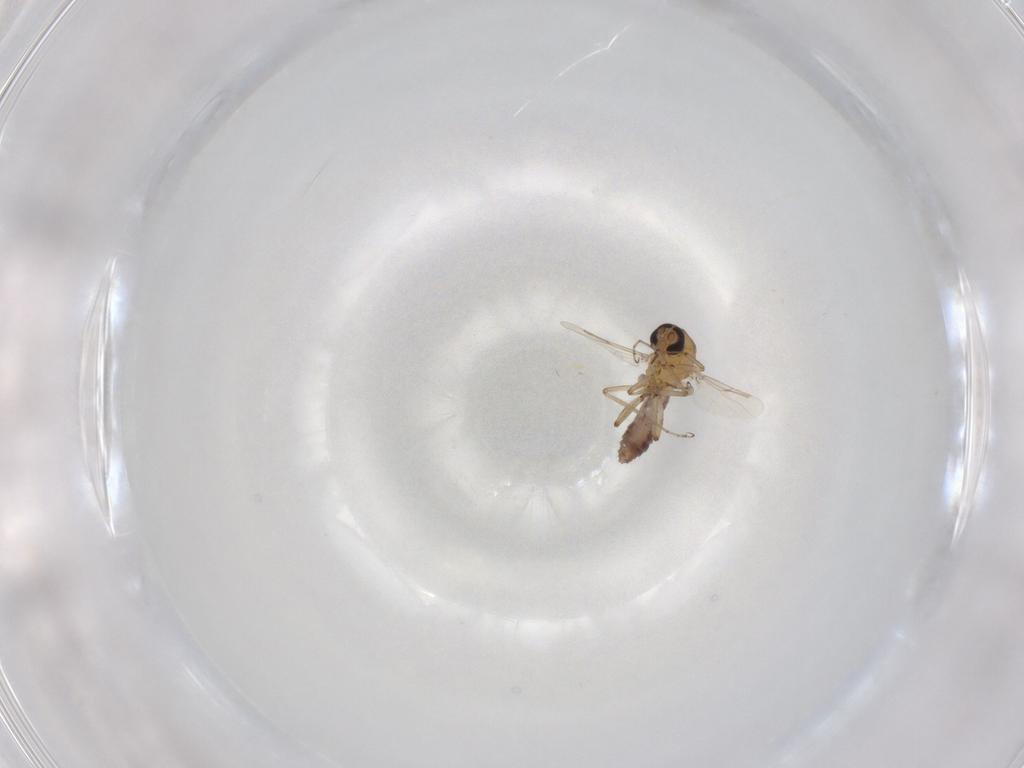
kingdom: Animalia
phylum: Arthropoda
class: Insecta
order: Diptera
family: Ceratopogonidae
